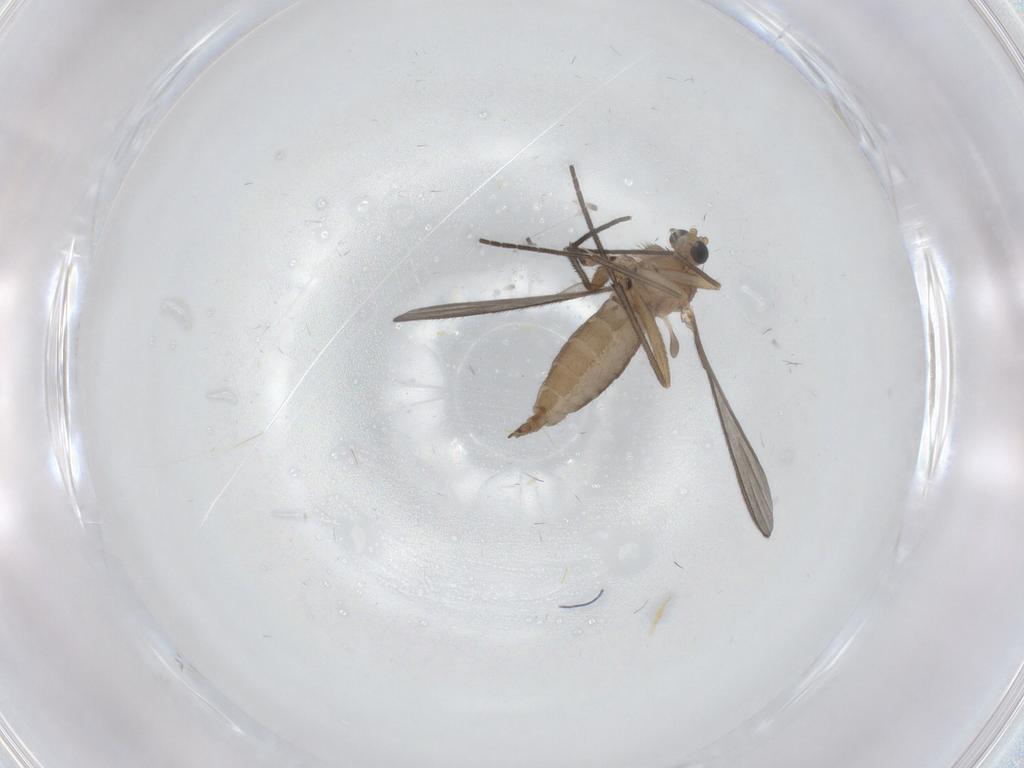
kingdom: Animalia
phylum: Arthropoda
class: Insecta
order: Diptera
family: Sciaridae
